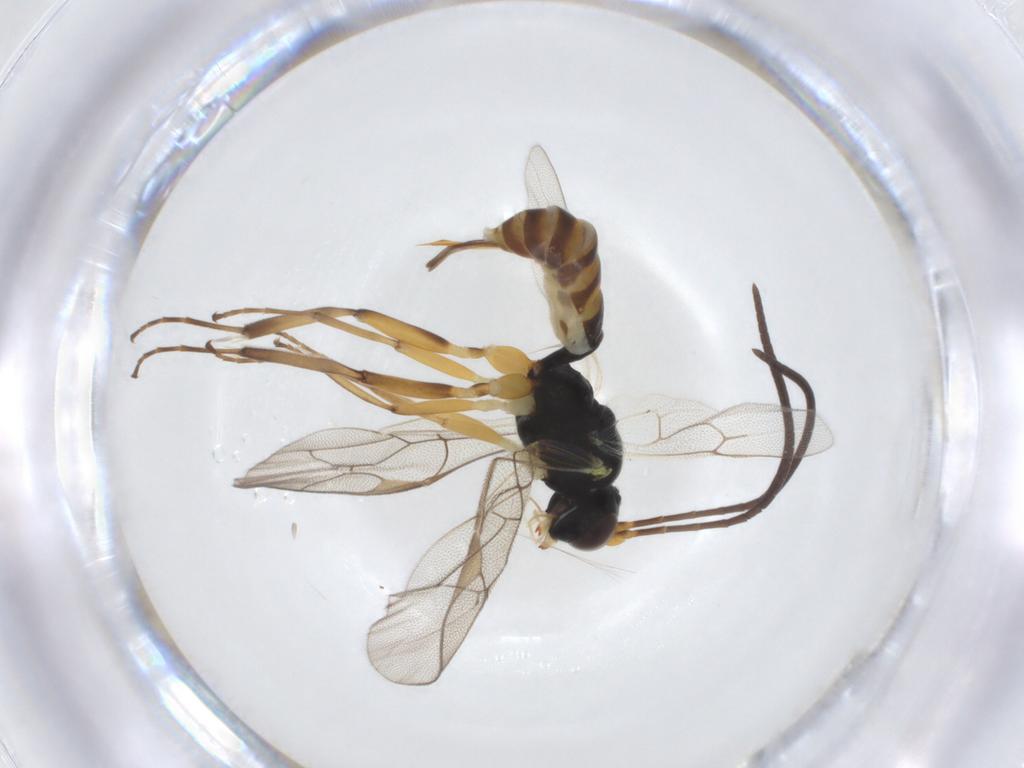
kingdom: Animalia
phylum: Arthropoda
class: Insecta
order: Hymenoptera
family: Ichneumonidae
